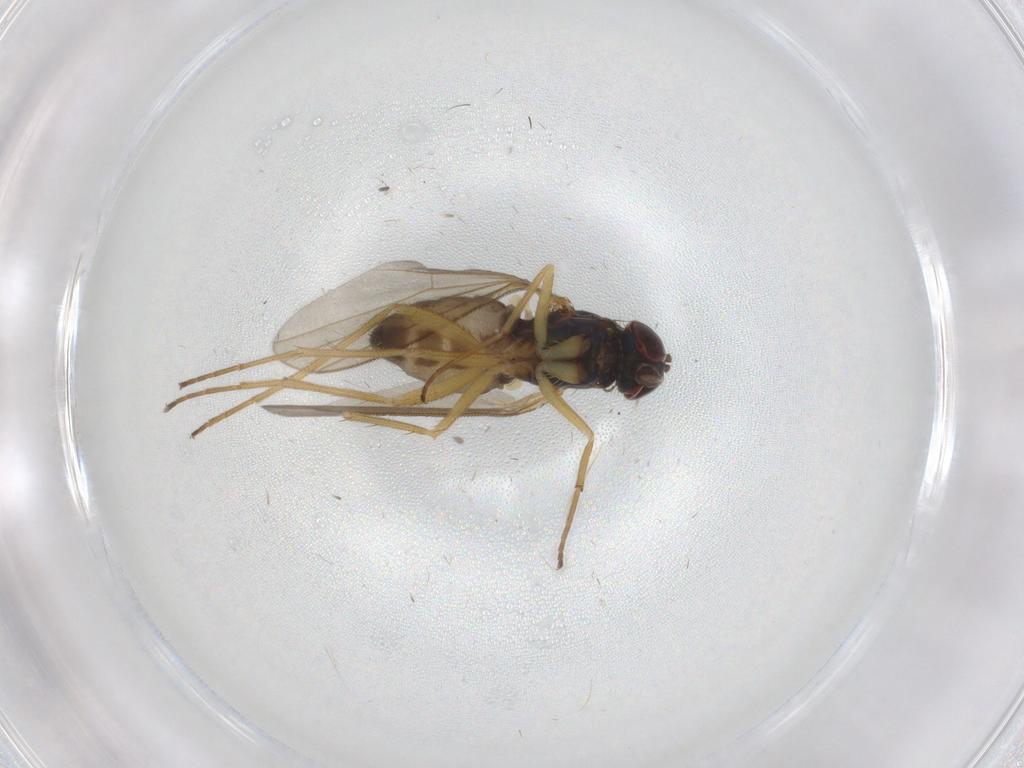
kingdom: Animalia
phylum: Arthropoda
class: Insecta
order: Diptera
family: Dolichopodidae
